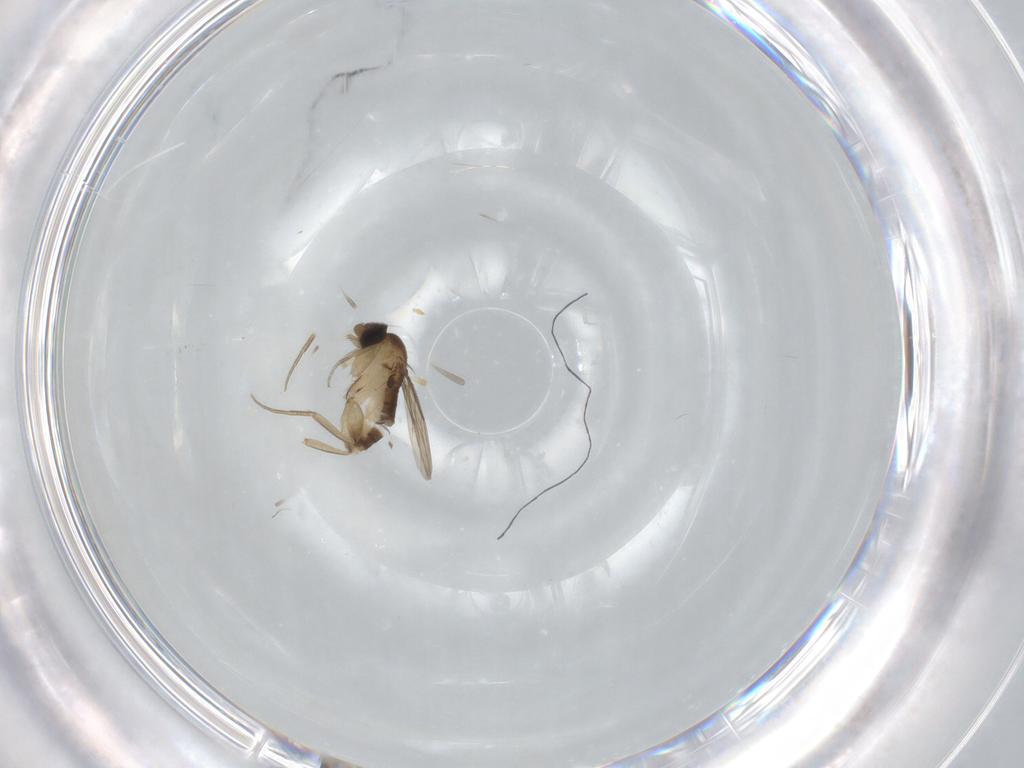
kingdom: Animalia
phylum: Arthropoda
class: Insecta
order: Diptera
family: Phoridae
